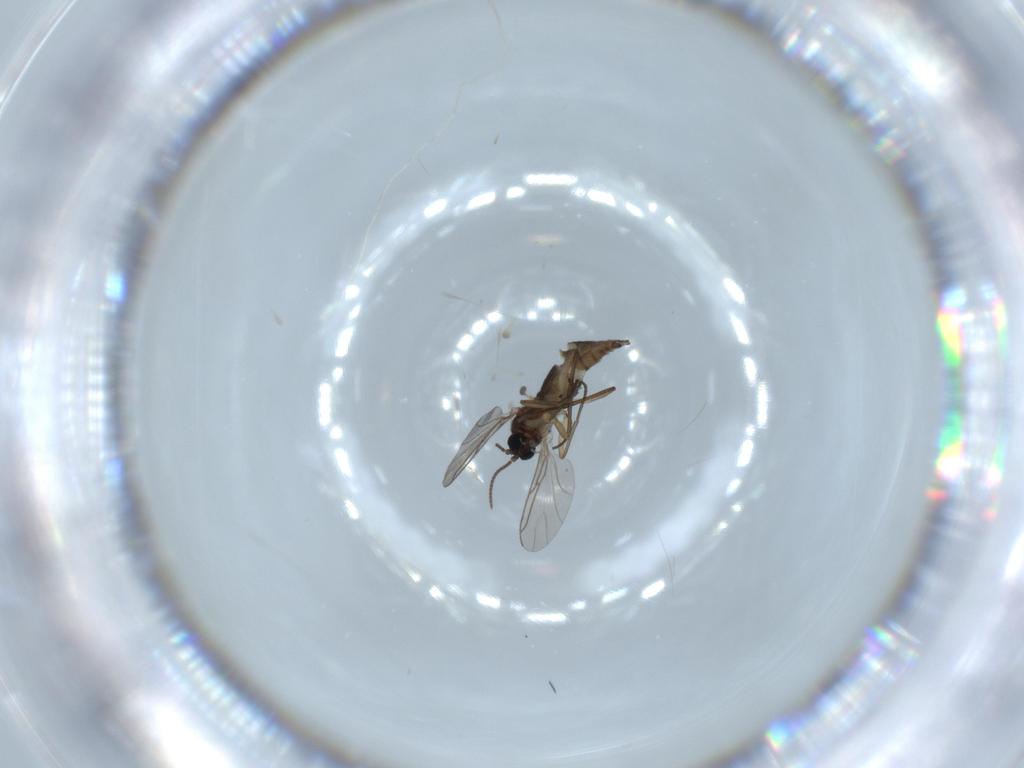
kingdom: Animalia
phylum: Arthropoda
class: Insecta
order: Diptera
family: Sciaridae
